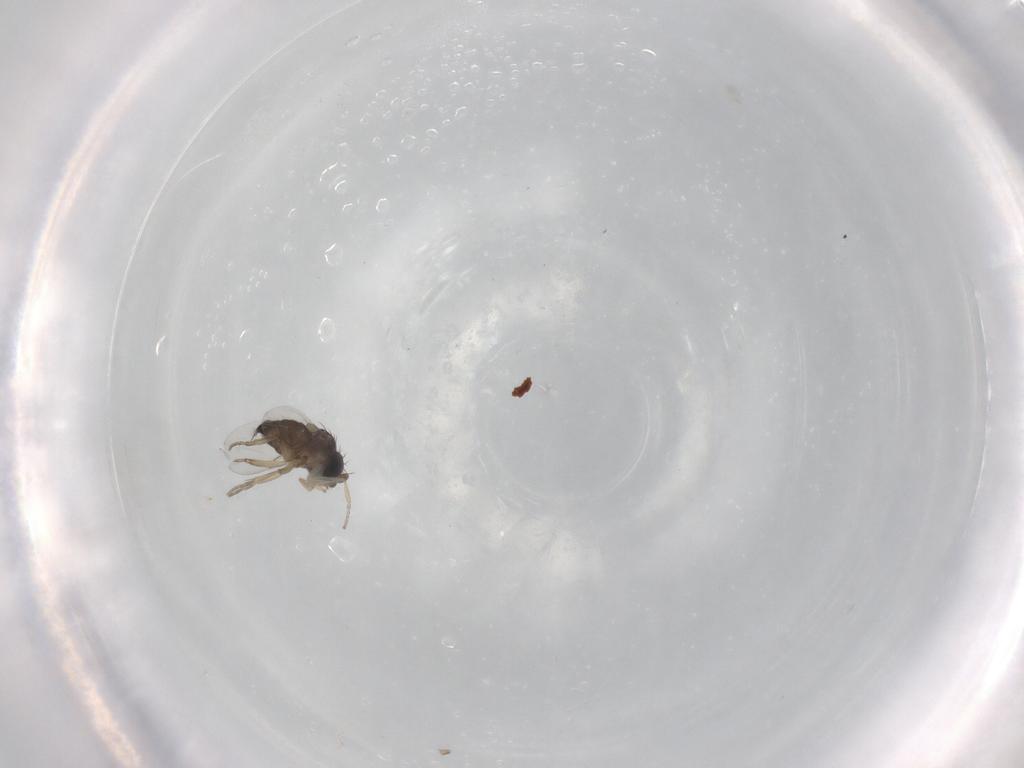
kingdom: Animalia
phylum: Arthropoda
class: Insecta
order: Diptera
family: Phoridae
